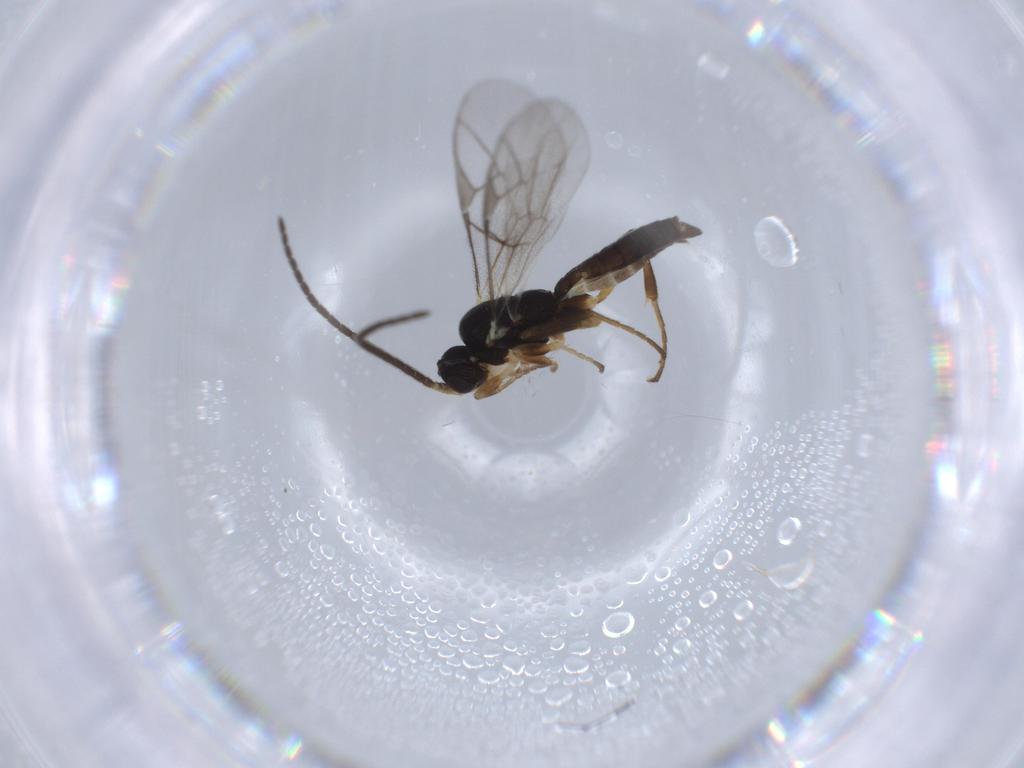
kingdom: Animalia
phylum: Arthropoda
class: Insecta
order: Hymenoptera
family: Ichneumonidae
